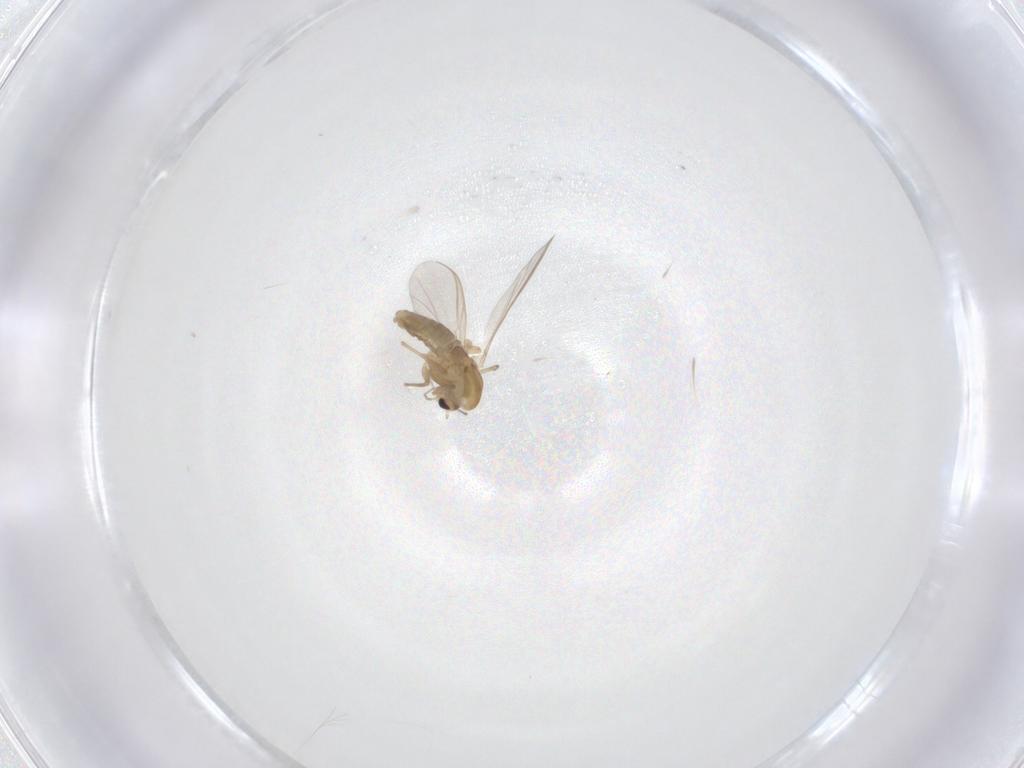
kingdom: Animalia
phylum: Arthropoda
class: Insecta
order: Diptera
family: Chironomidae
